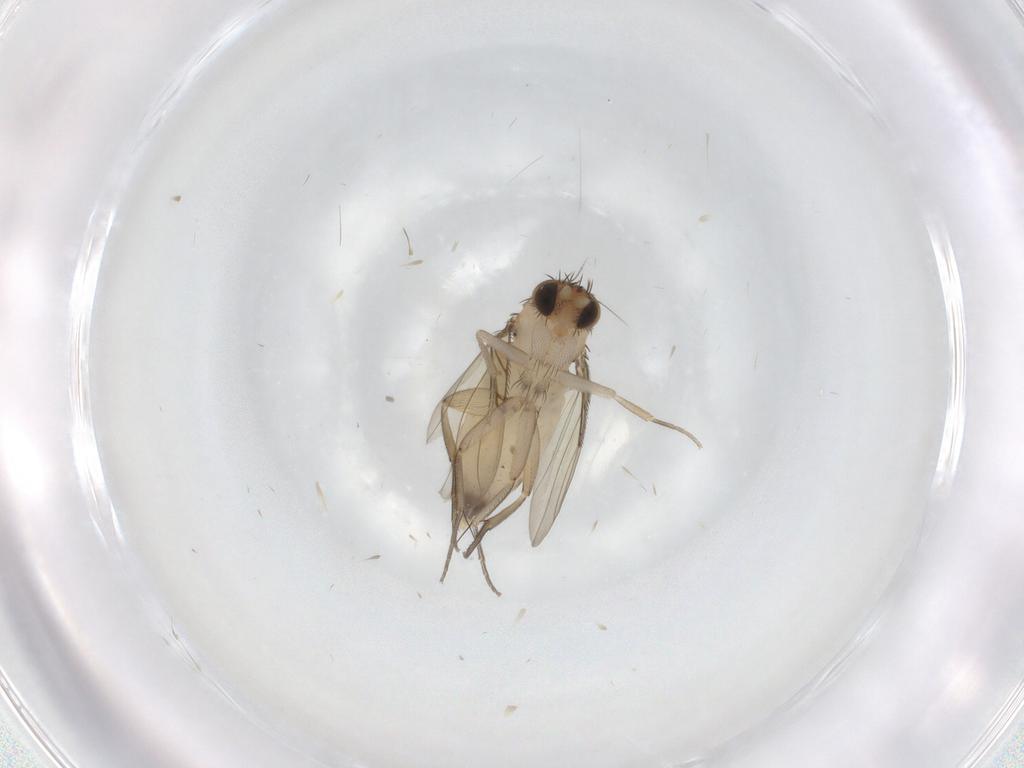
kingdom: Animalia
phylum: Arthropoda
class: Insecta
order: Diptera
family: Phoridae
